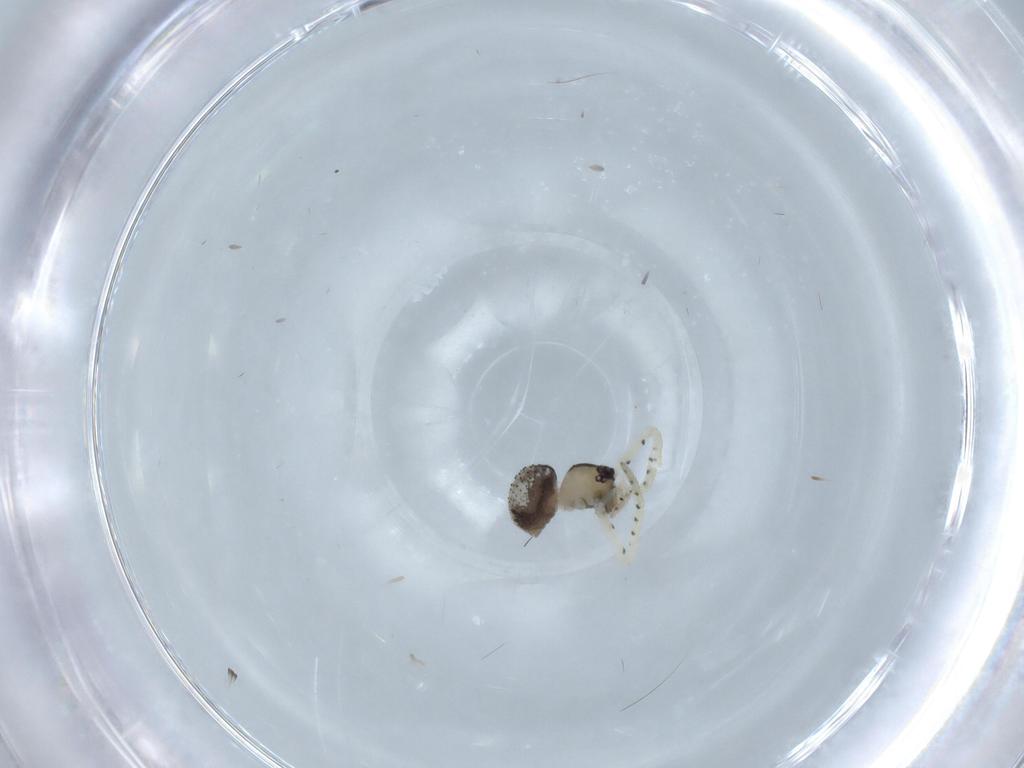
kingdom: Animalia
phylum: Arthropoda
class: Arachnida
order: Araneae
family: Theridiidae
